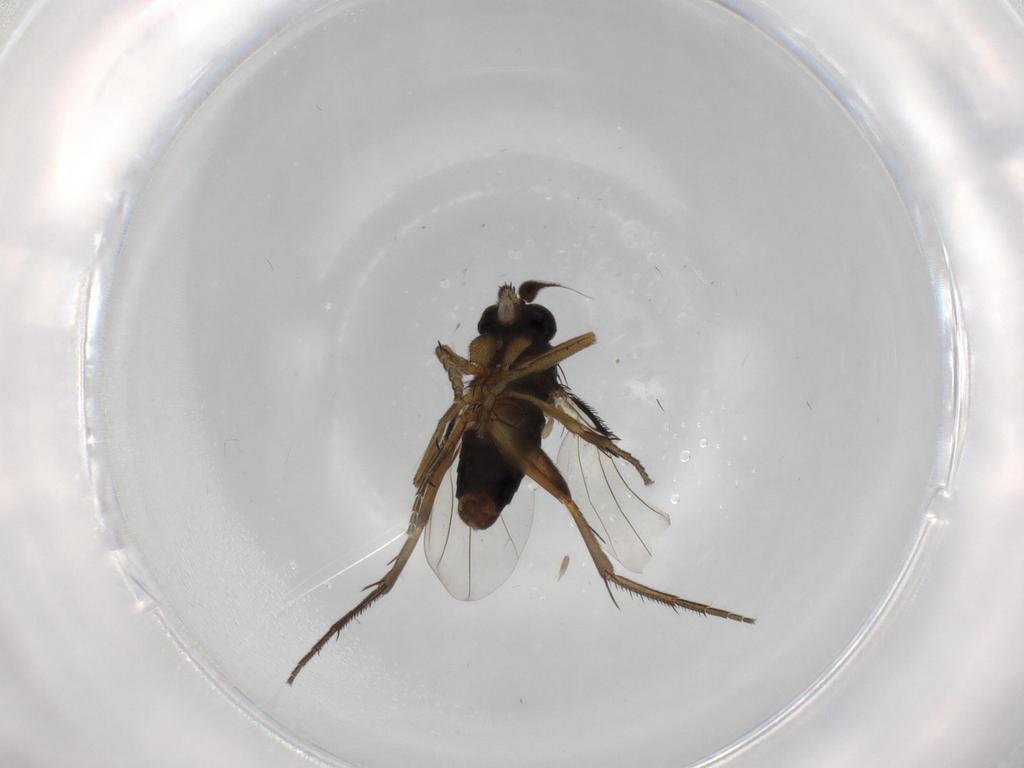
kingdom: Animalia
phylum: Arthropoda
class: Insecta
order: Diptera
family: Phoridae
